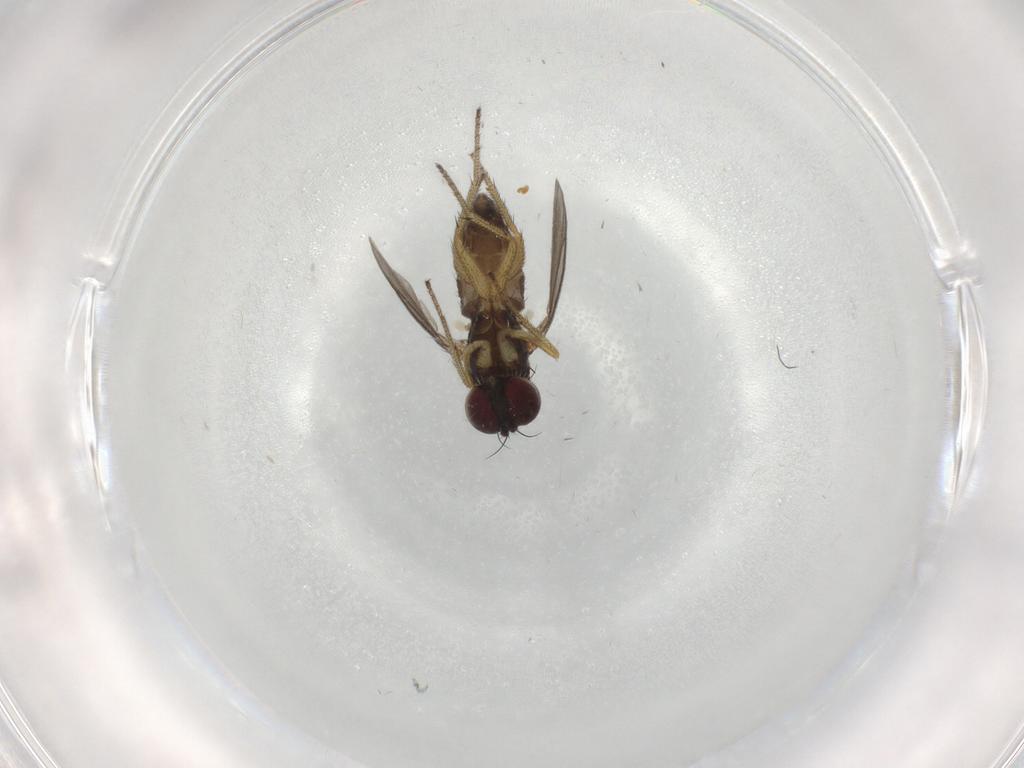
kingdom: Animalia
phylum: Arthropoda
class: Insecta
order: Diptera
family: Dolichopodidae
